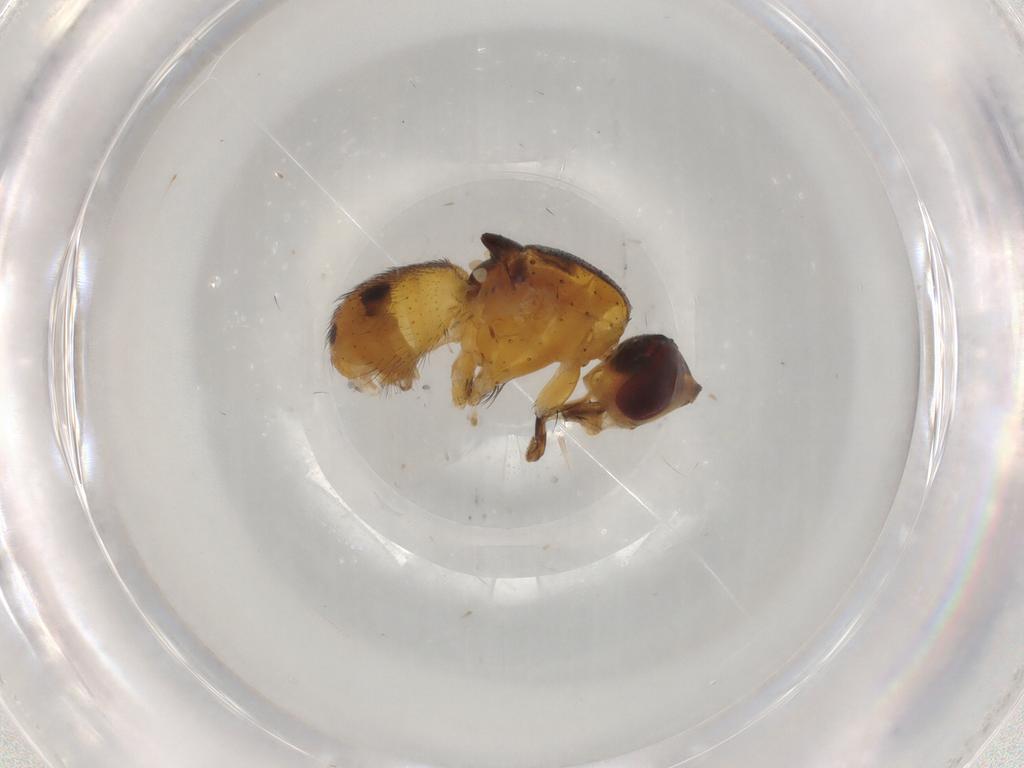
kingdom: Animalia
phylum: Arthropoda
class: Insecta
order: Diptera
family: Muscidae
